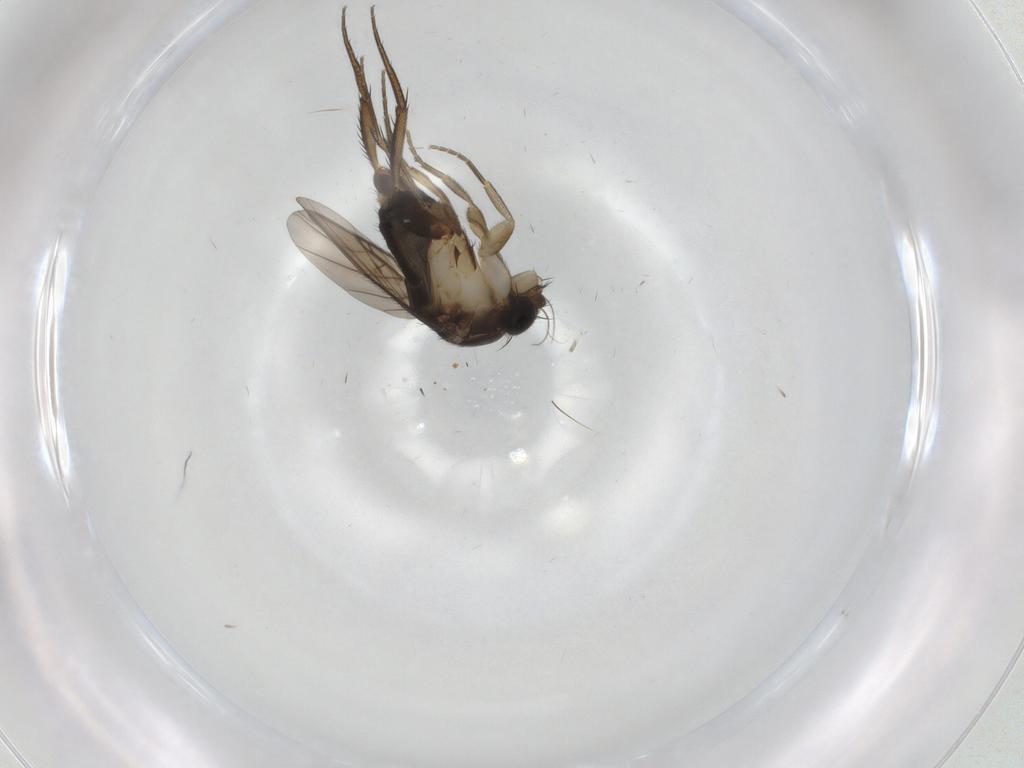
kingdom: Animalia
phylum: Arthropoda
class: Insecta
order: Diptera
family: Phoridae
